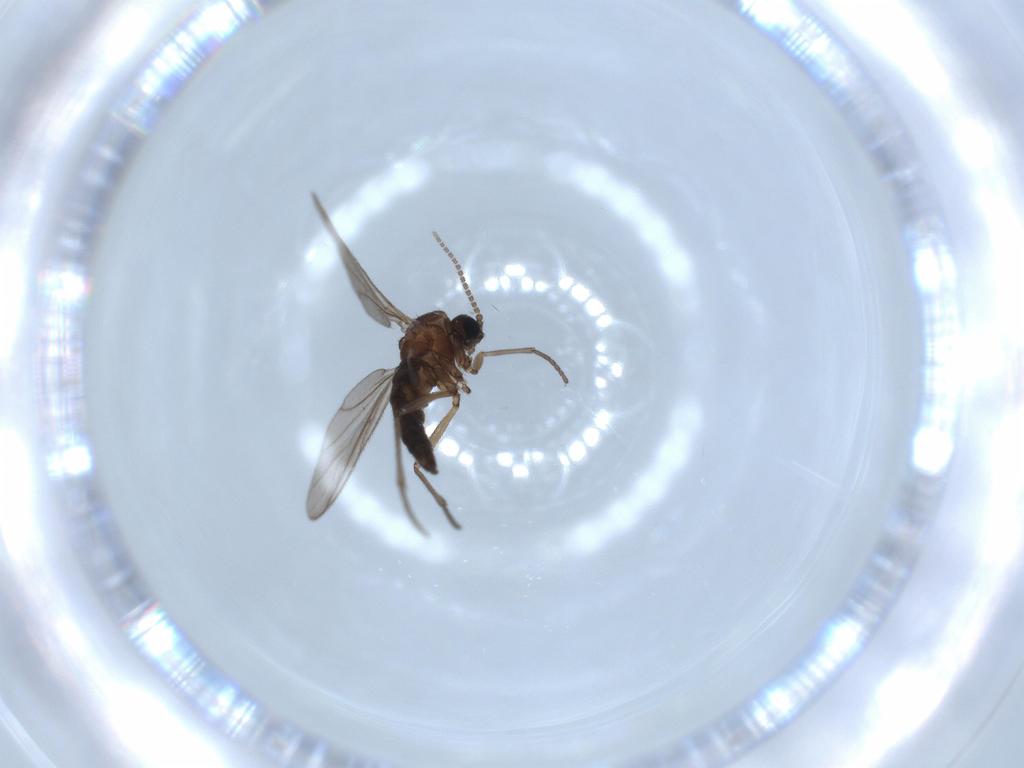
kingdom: Animalia
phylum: Arthropoda
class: Insecta
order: Diptera
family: Sciaridae
